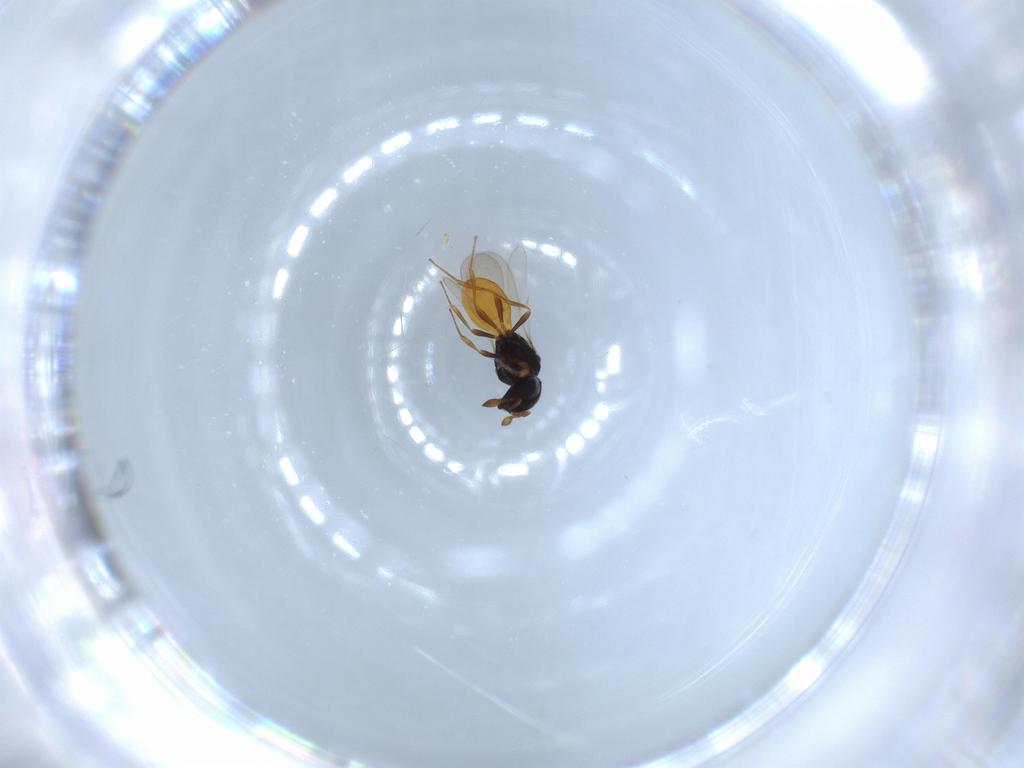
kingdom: Animalia
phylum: Arthropoda
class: Insecta
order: Hymenoptera
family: Scelionidae
